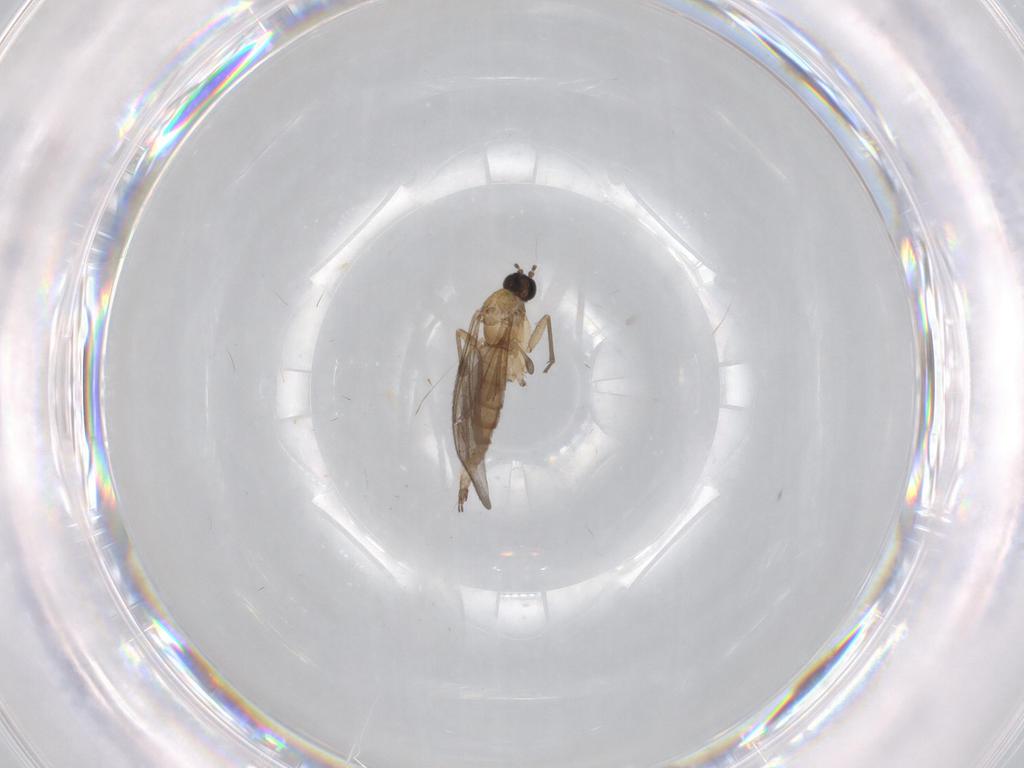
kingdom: Animalia
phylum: Arthropoda
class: Insecta
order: Diptera
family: Sciaridae
